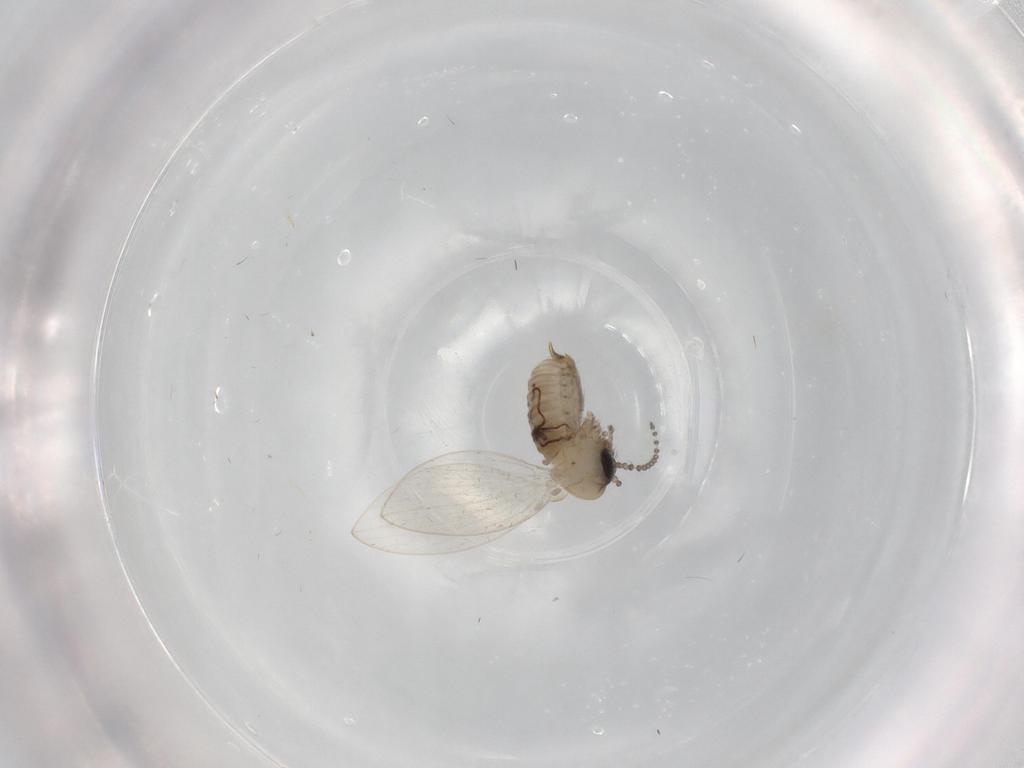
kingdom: Animalia
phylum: Arthropoda
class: Insecta
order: Diptera
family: Psychodidae
